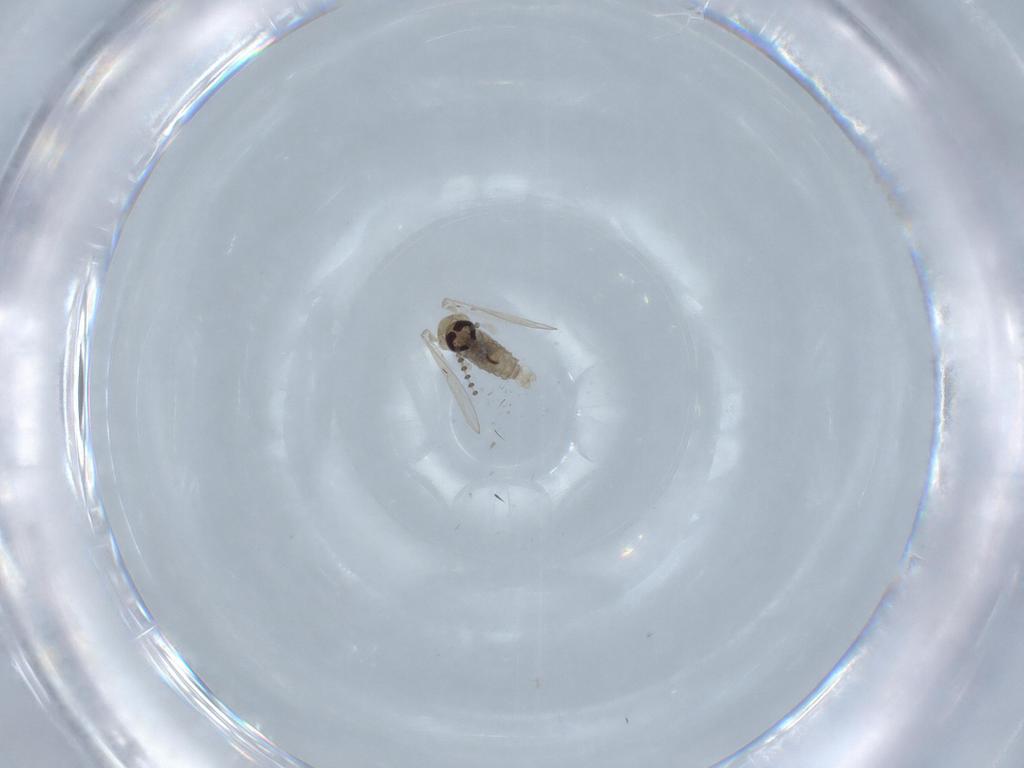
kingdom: Animalia
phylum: Arthropoda
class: Insecta
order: Diptera
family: Psychodidae
